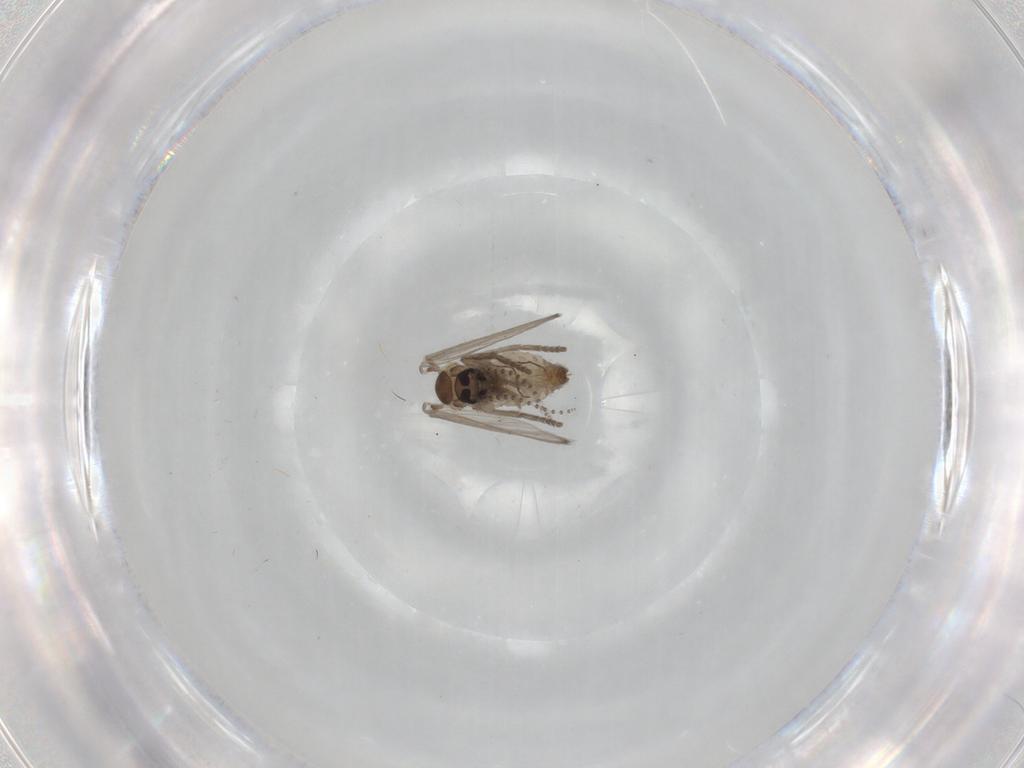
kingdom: Animalia
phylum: Arthropoda
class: Insecta
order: Diptera
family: Psychodidae
